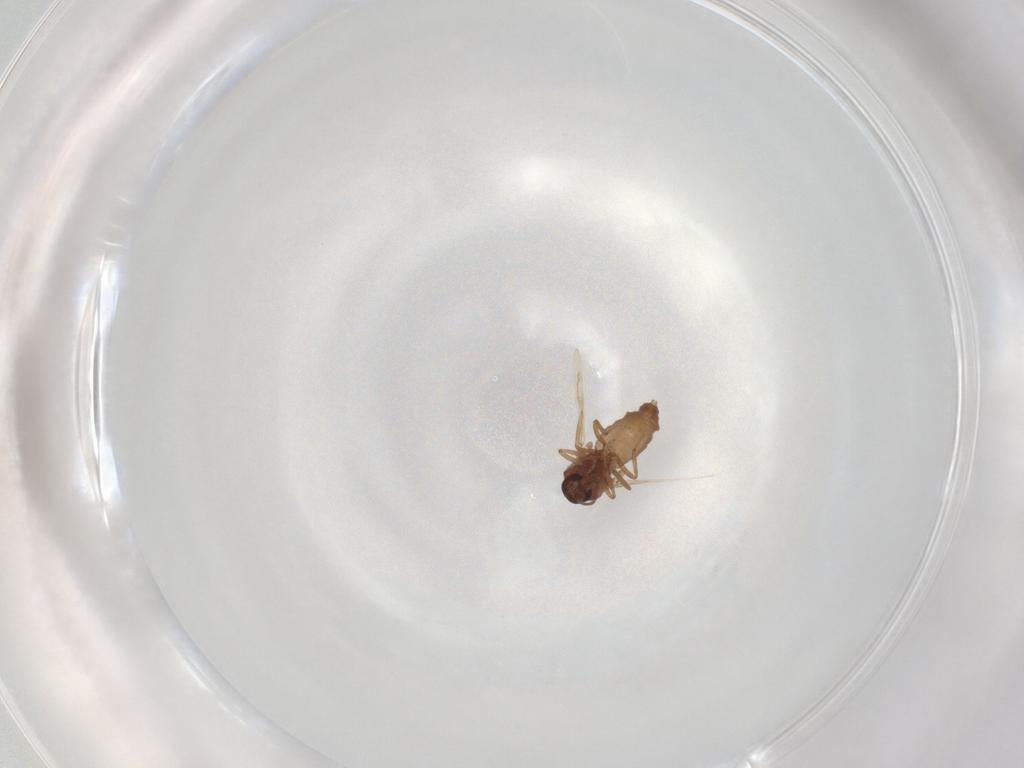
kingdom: Animalia
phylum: Arthropoda
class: Insecta
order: Diptera
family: Ceratopogonidae
